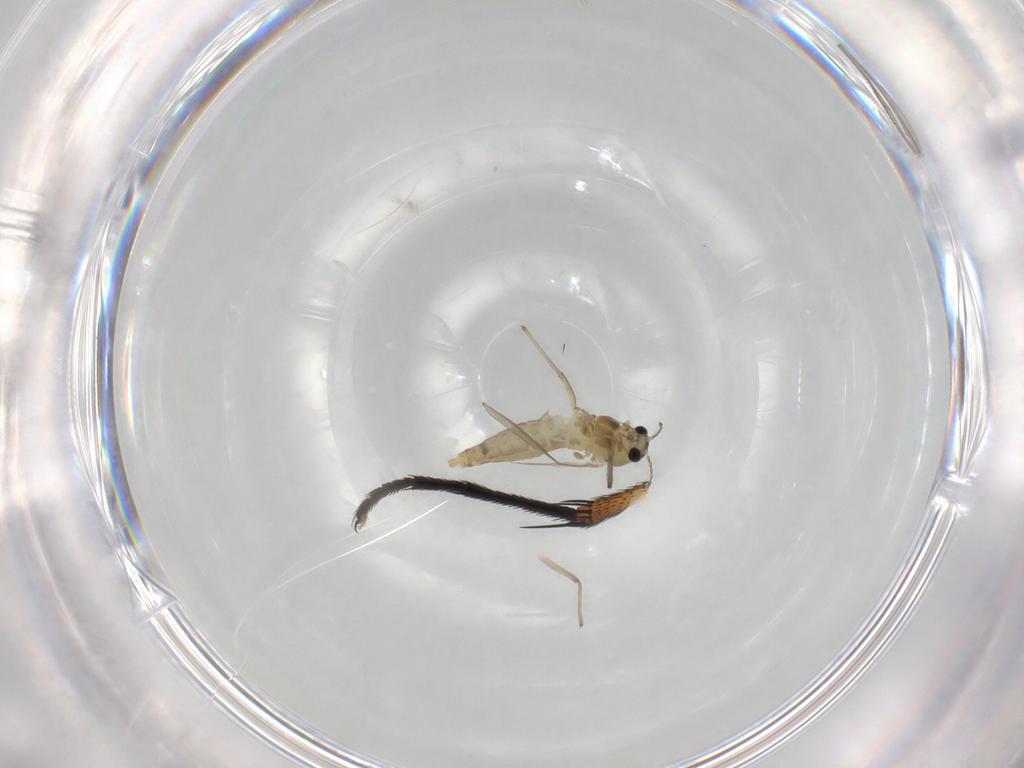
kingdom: Animalia
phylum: Arthropoda
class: Insecta
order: Diptera
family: Chironomidae
